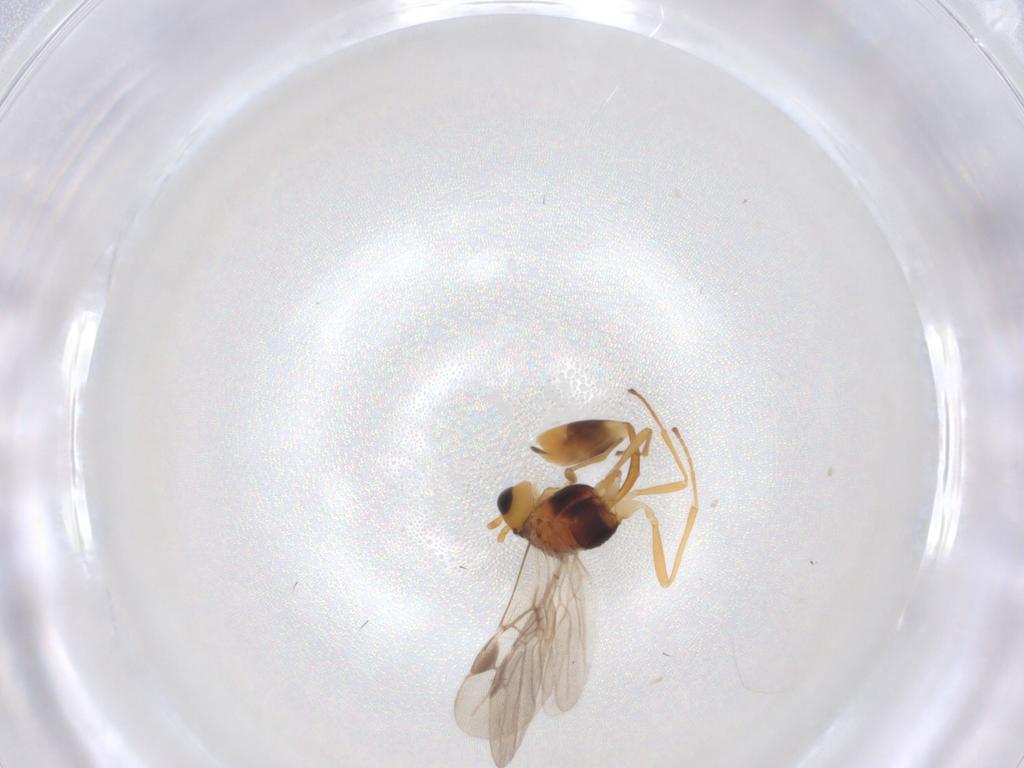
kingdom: Animalia
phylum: Arthropoda
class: Insecta
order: Hymenoptera
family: Braconidae
